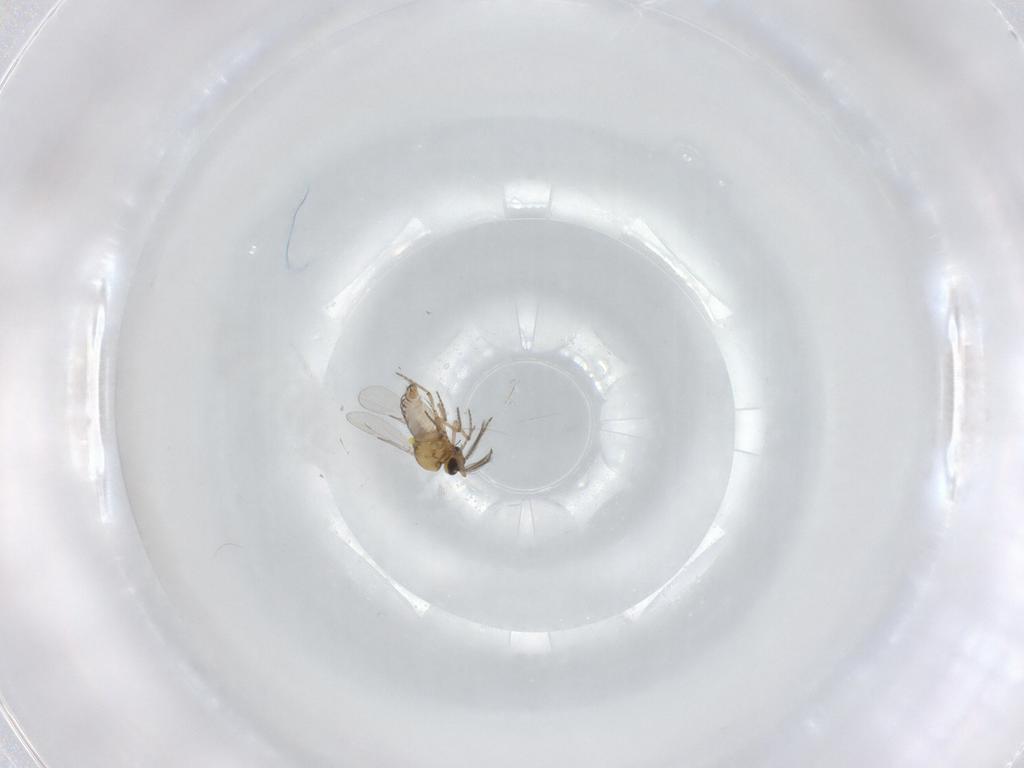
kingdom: Animalia
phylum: Arthropoda
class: Insecta
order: Diptera
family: Ceratopogonidae
